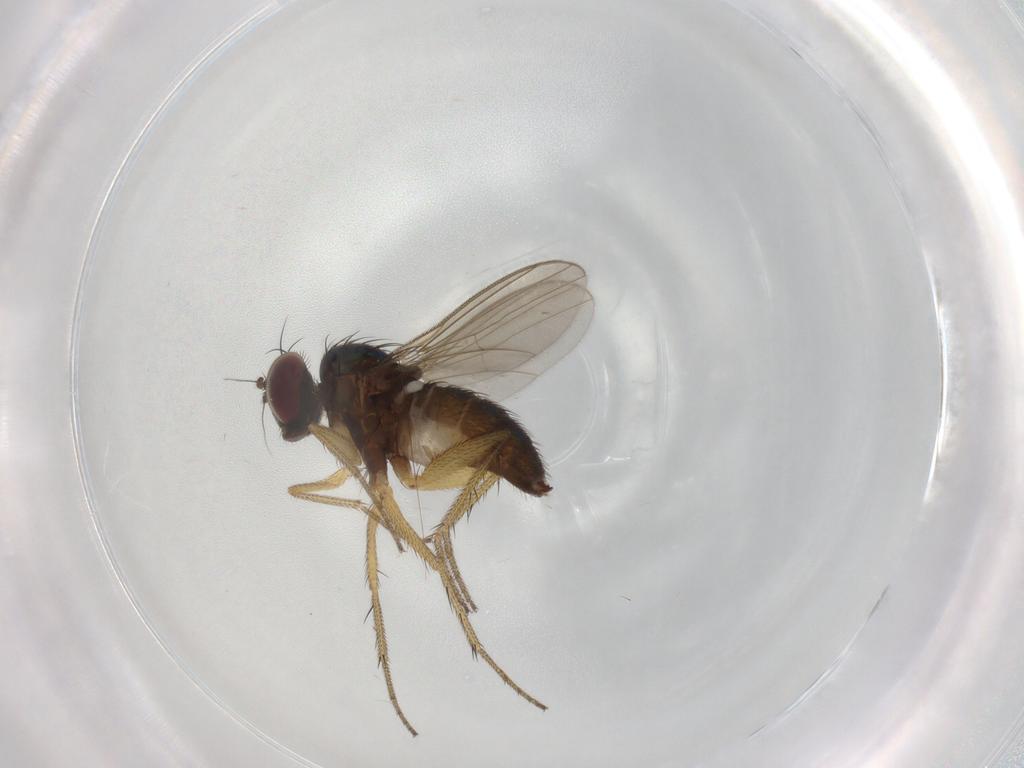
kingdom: Animalia
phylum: Arthropoda
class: Insecta
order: Diptera
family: Dolichopodidae
